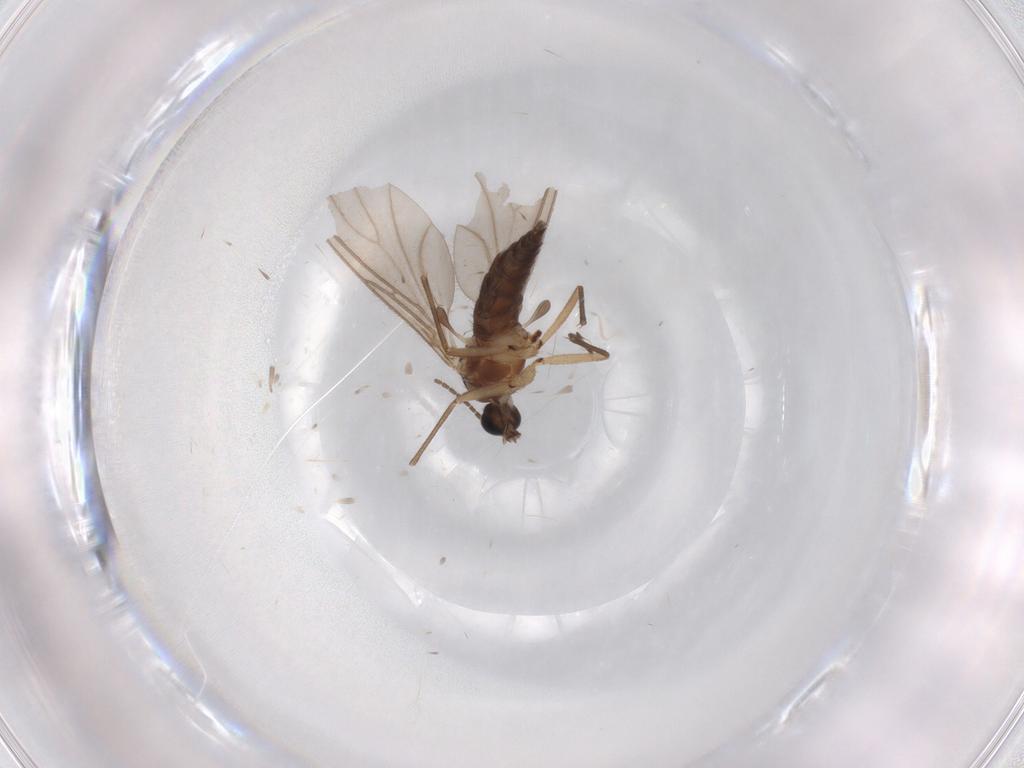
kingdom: Animalia
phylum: Arthropoda
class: Insecta
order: Diptera
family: Sciaridae
